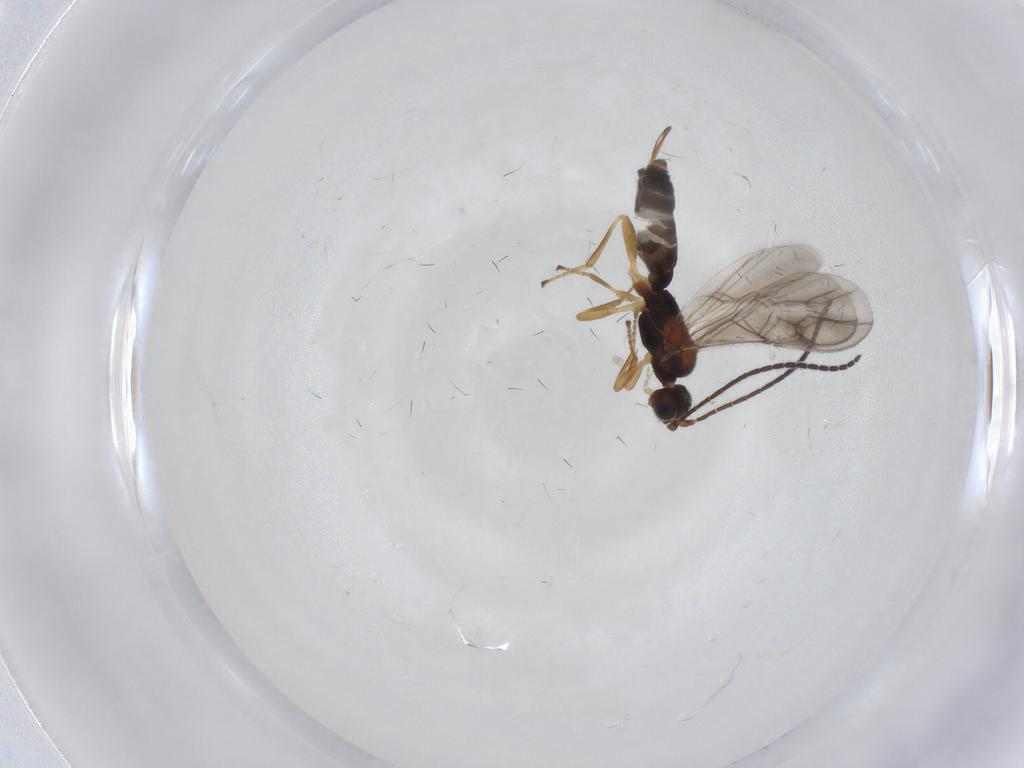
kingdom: Animalia
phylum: Arthropoda
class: Insecta
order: Hymenoptera
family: Braconidae
